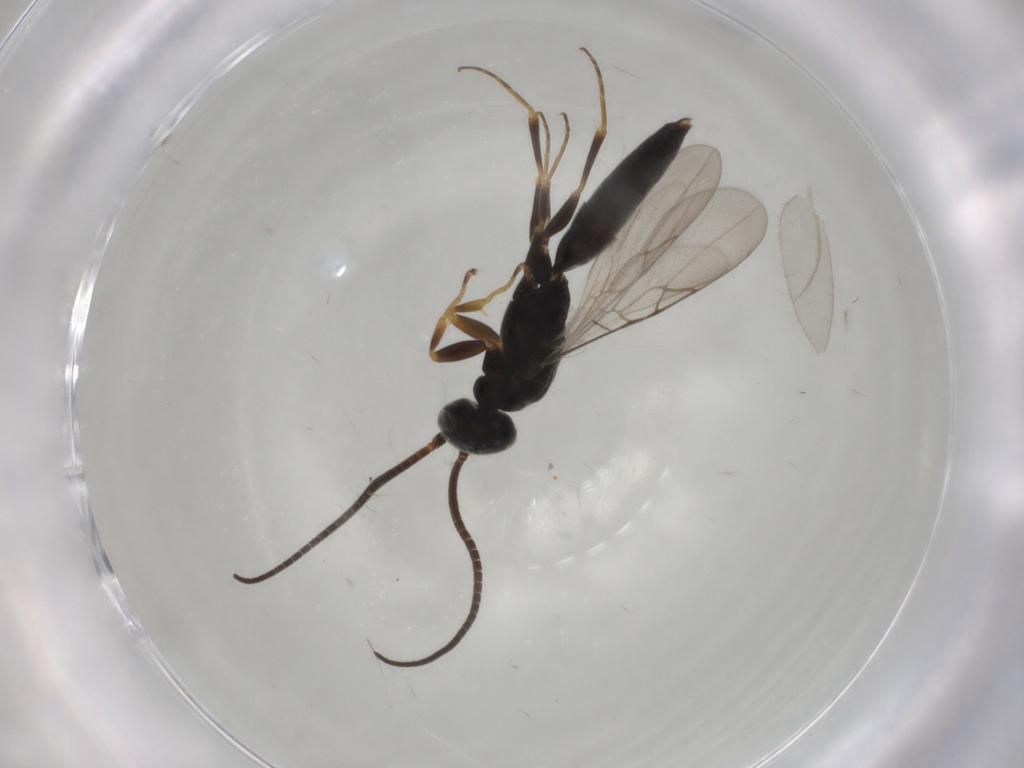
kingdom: Animalia
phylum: Arthropoda
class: Insecta
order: Hymenoptera
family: Sclerogibbidae
